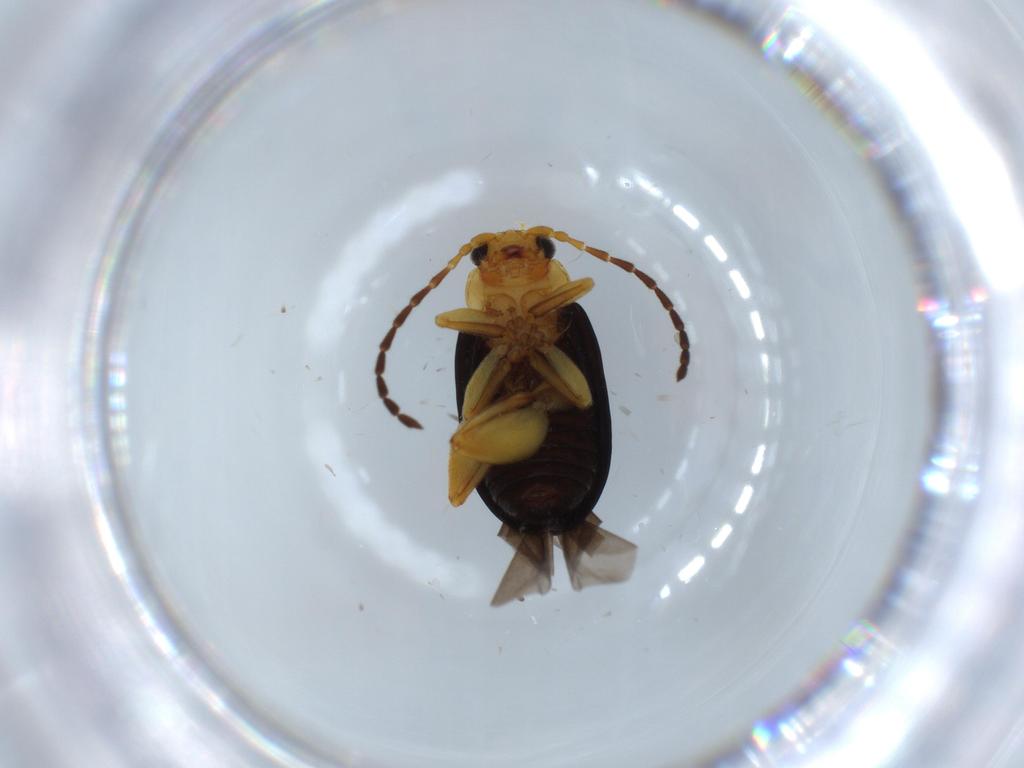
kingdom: Animalia
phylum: Arthropoda
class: Insecta
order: Coleoptera
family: Chrysomelidae
